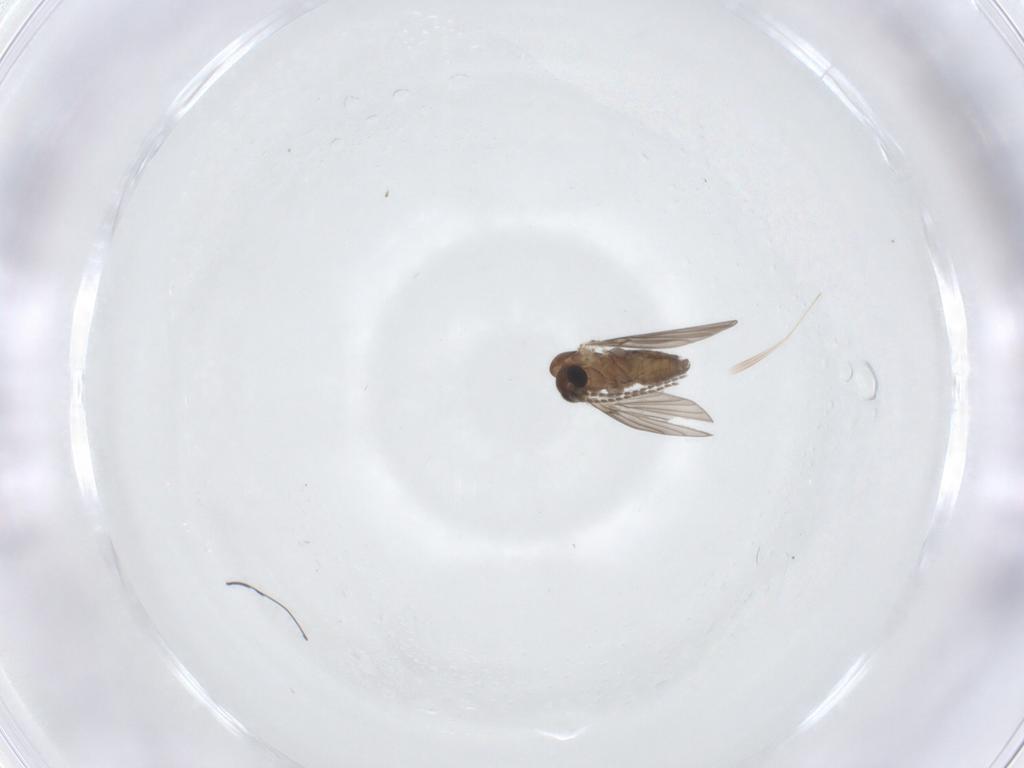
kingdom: Animalia
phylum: Arthropoda
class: Insecta
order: Diptera
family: Psychodidae
